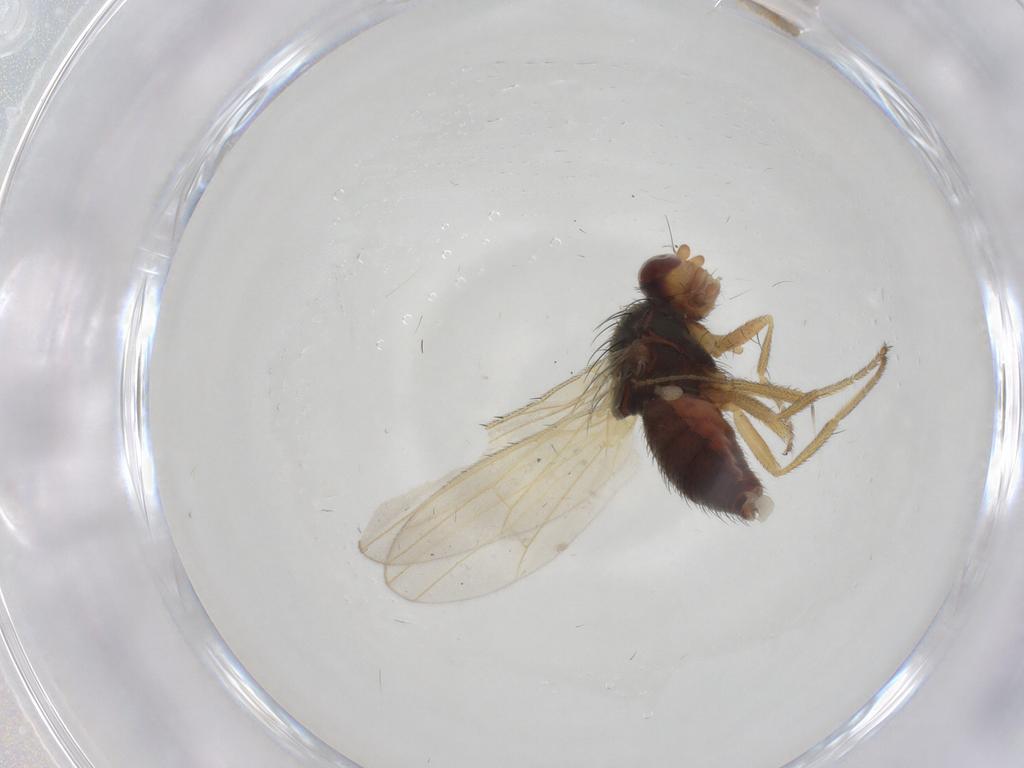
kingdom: Animalia
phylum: Arthropoda
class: Insecta
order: Diptera
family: Heleomyzidae
